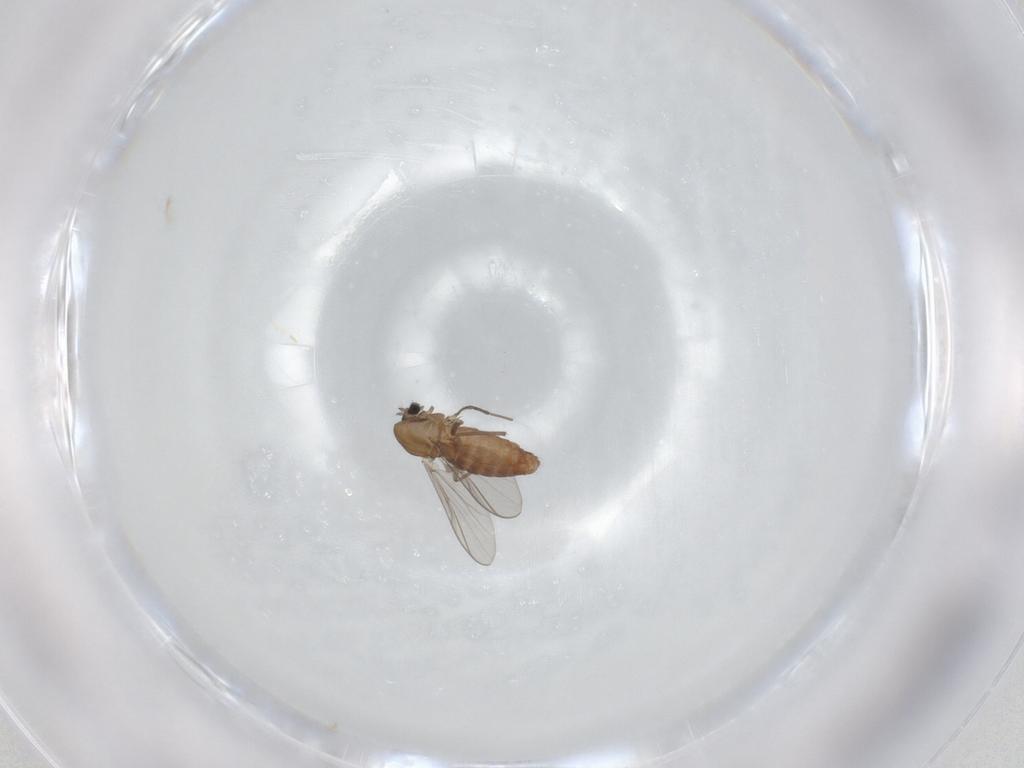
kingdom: Animalia
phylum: Arthropoda
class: Insecta
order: Diptera
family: Chironomidae
